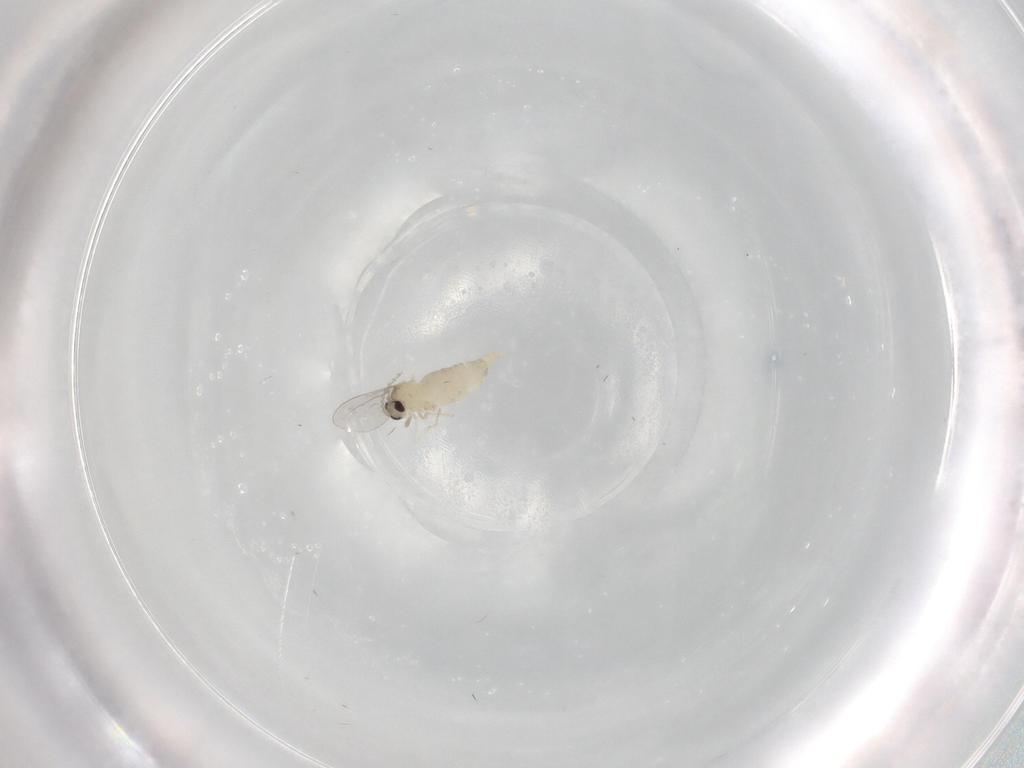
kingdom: Animalia
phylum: Arthropoda
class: Insecta
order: Diptera
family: Cecidomyiidae
